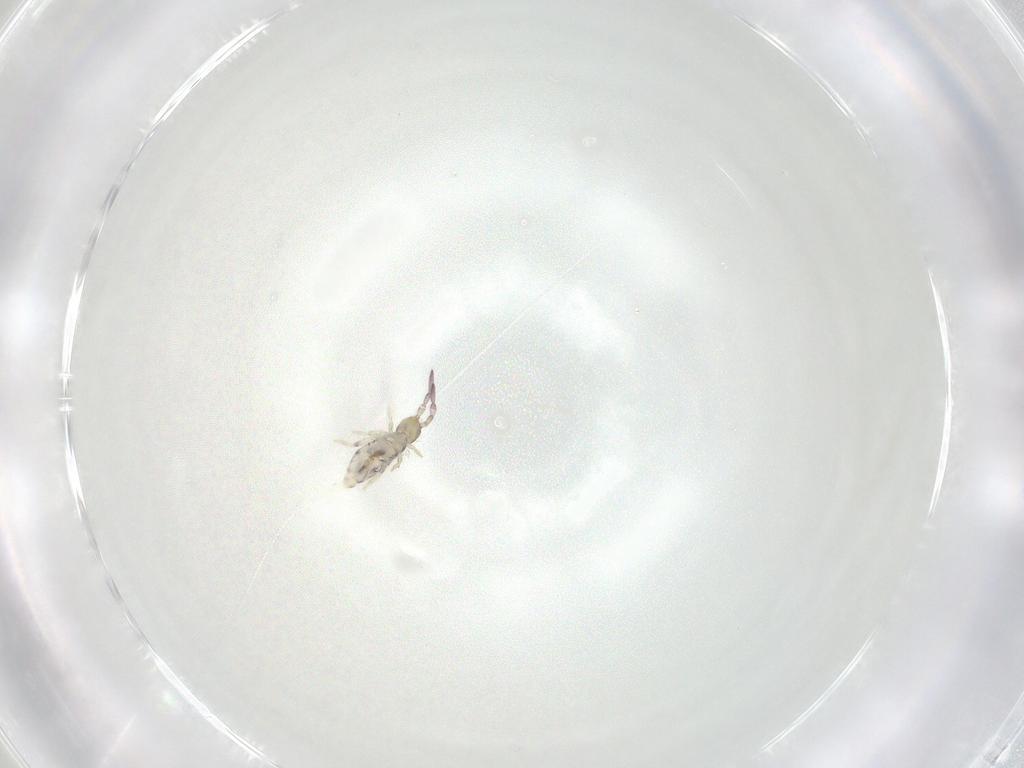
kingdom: Animalia
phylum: Arthropoda
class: Collembola
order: Entomobryomorpha
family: Entomobryidae
